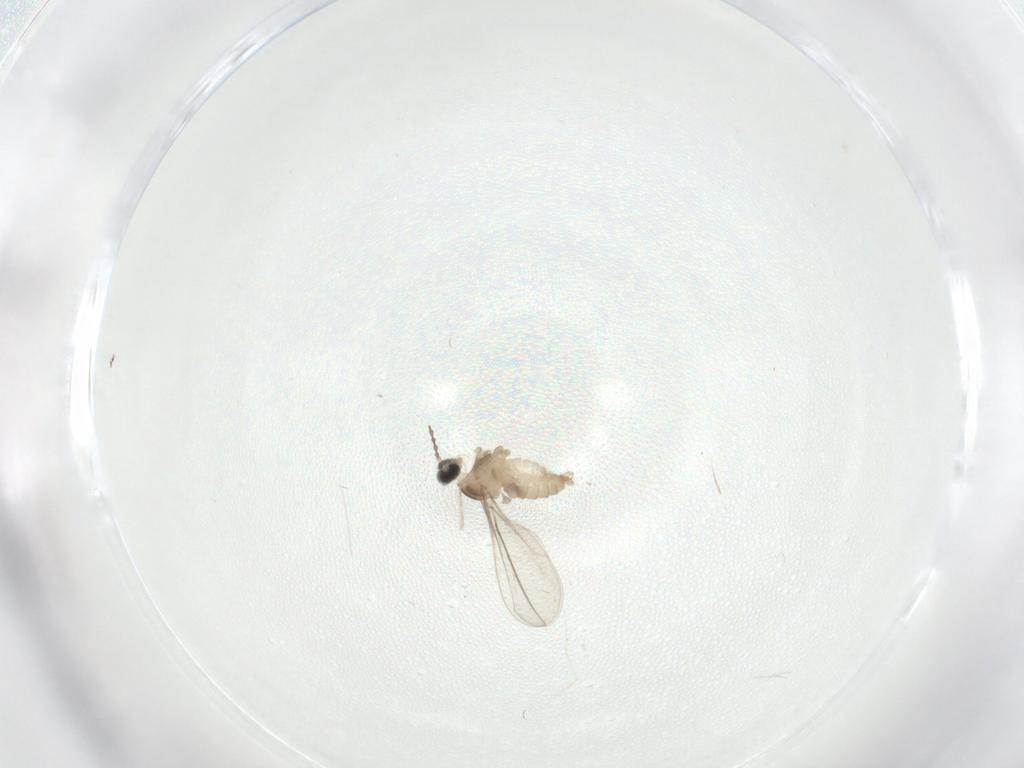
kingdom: Animalia
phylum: Arthropoda
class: Insecta
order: Diptera
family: Cecidomyiidae
